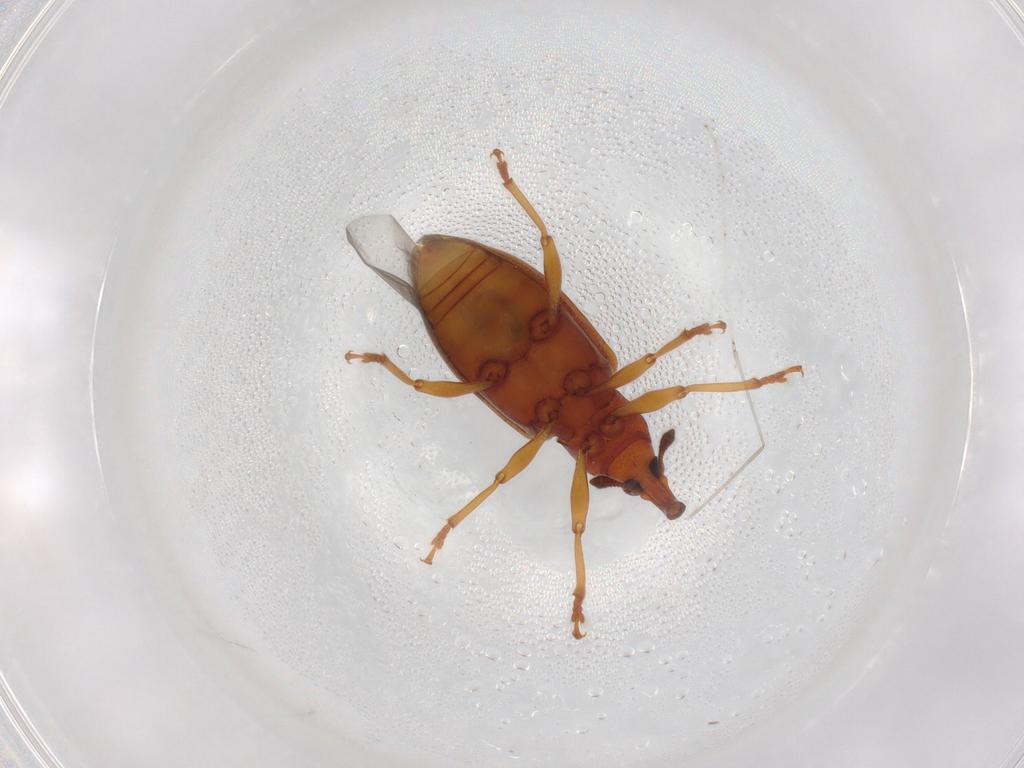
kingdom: Animalia
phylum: Arthropoda
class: Insecta
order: Coleoptera
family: Curculionidae
